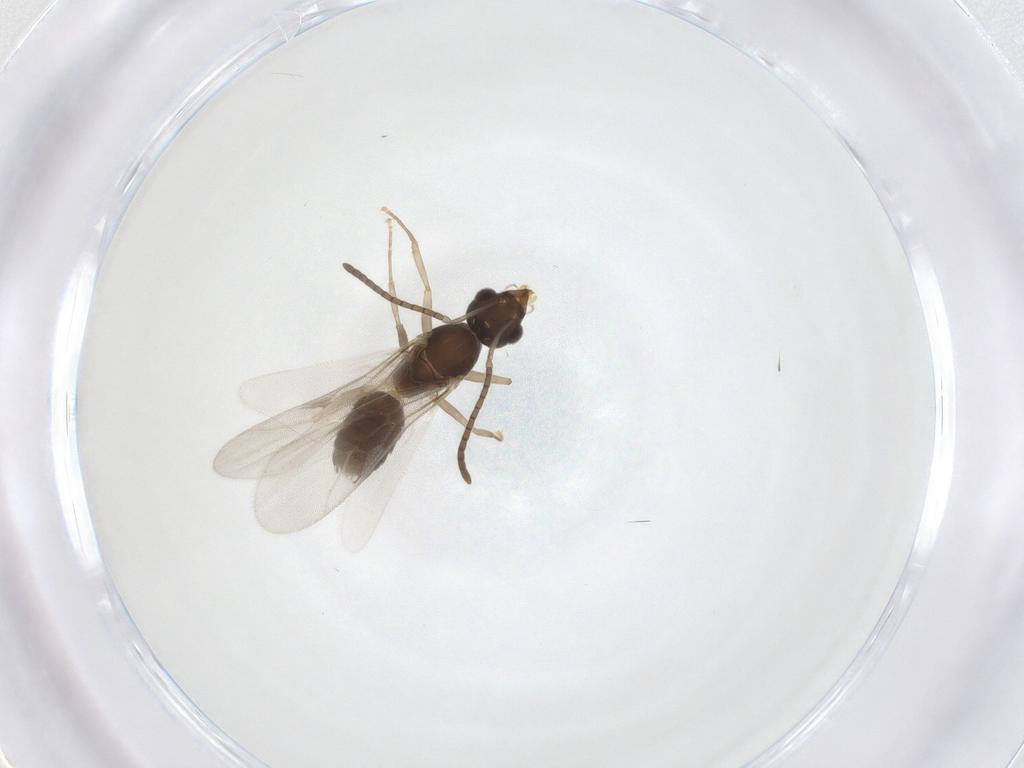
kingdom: Animalia
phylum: Arthropoda
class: Insecta
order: Hymenoptera
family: Formicidae
